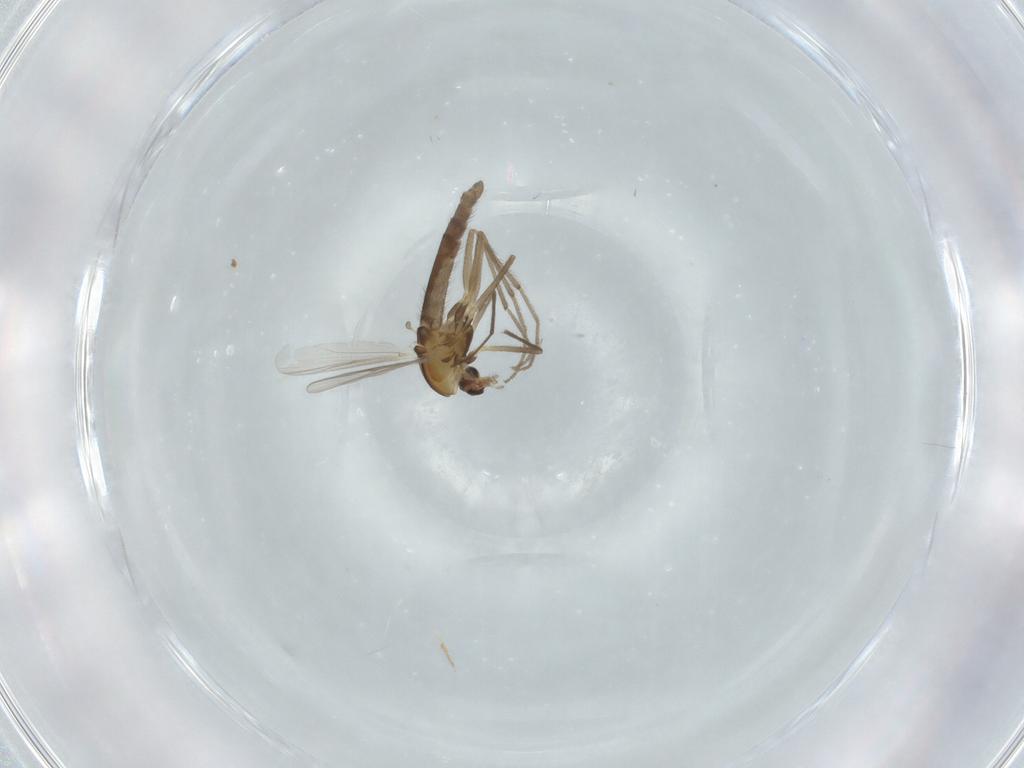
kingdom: Animalia
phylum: Arthropoda
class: Insecta
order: Diptera
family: Chironomidae
